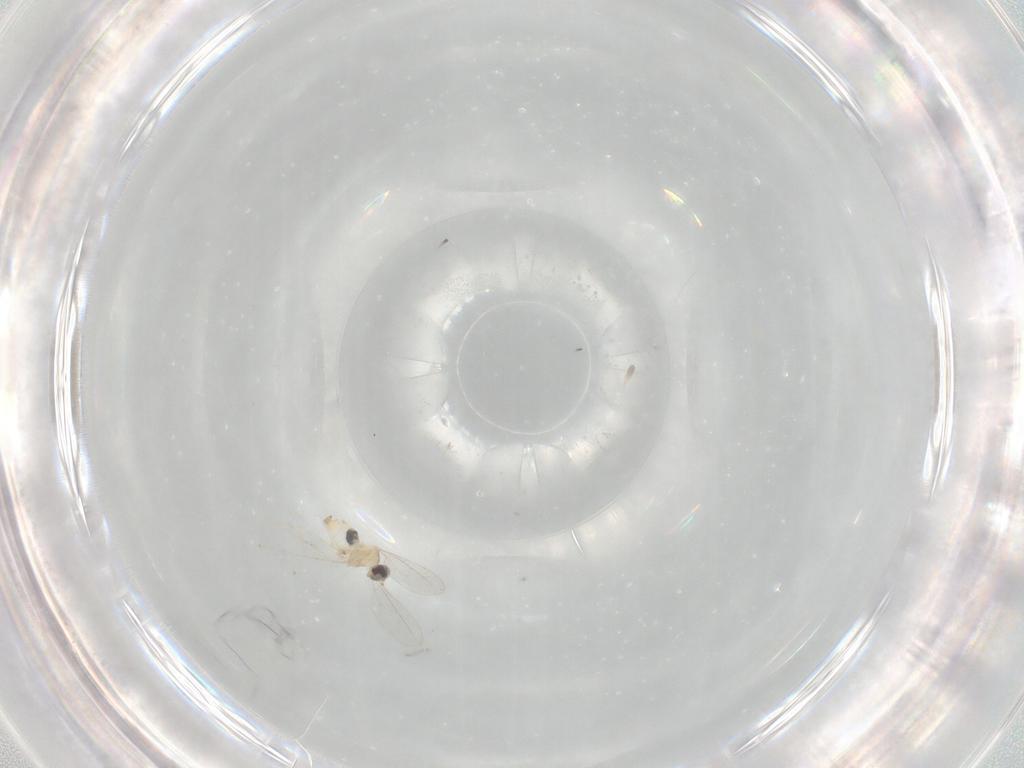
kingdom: Animalia
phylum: Arthropoda
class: Insecta
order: Diptera
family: Cecidomyiidae
